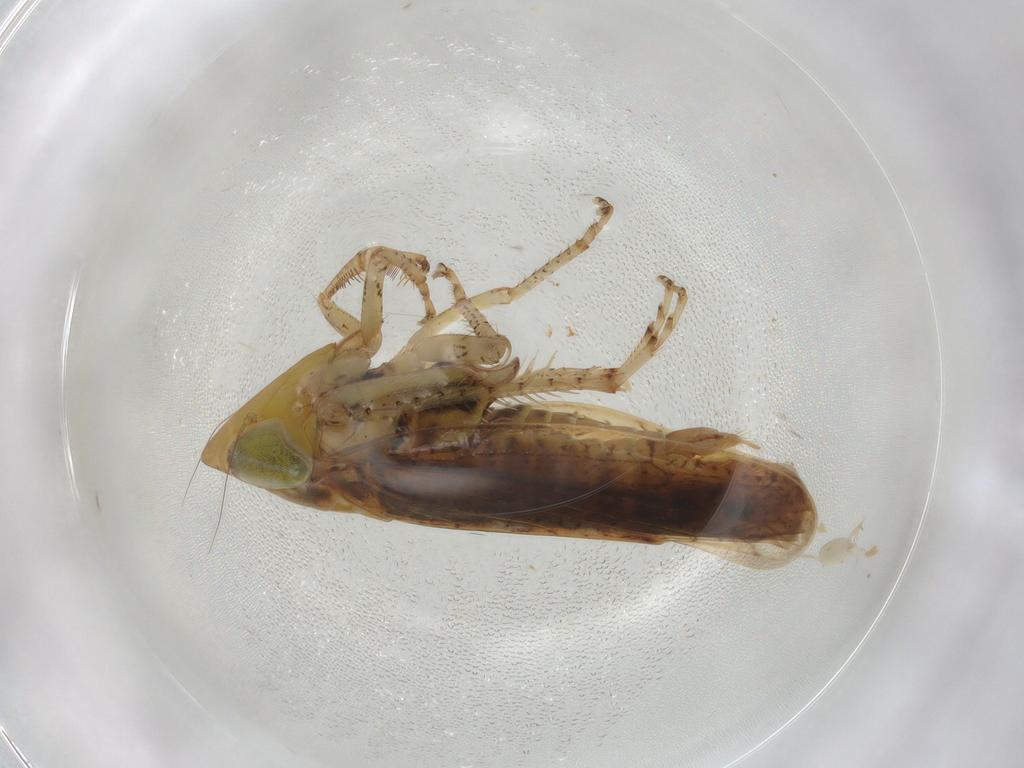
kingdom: Animalia
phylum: Arthropoda
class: Insecta
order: Hemiptera
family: Cicadellidae
